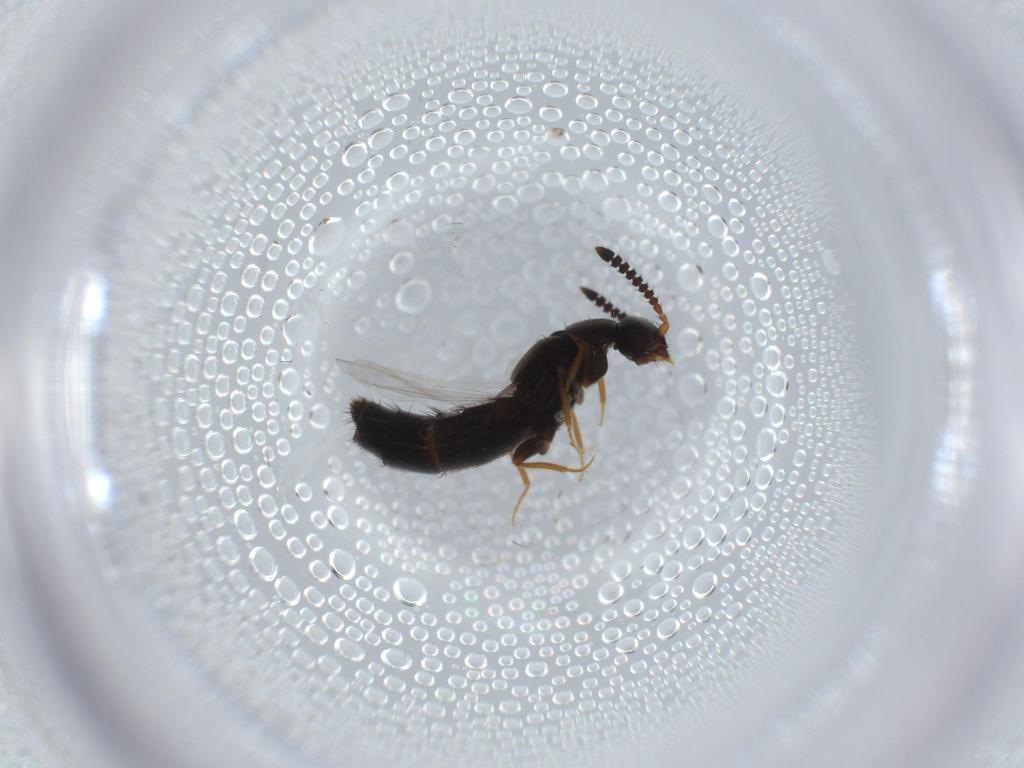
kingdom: Animalia
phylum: Arthropoda
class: Insecta
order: Coleoptera
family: Staphylinidae
